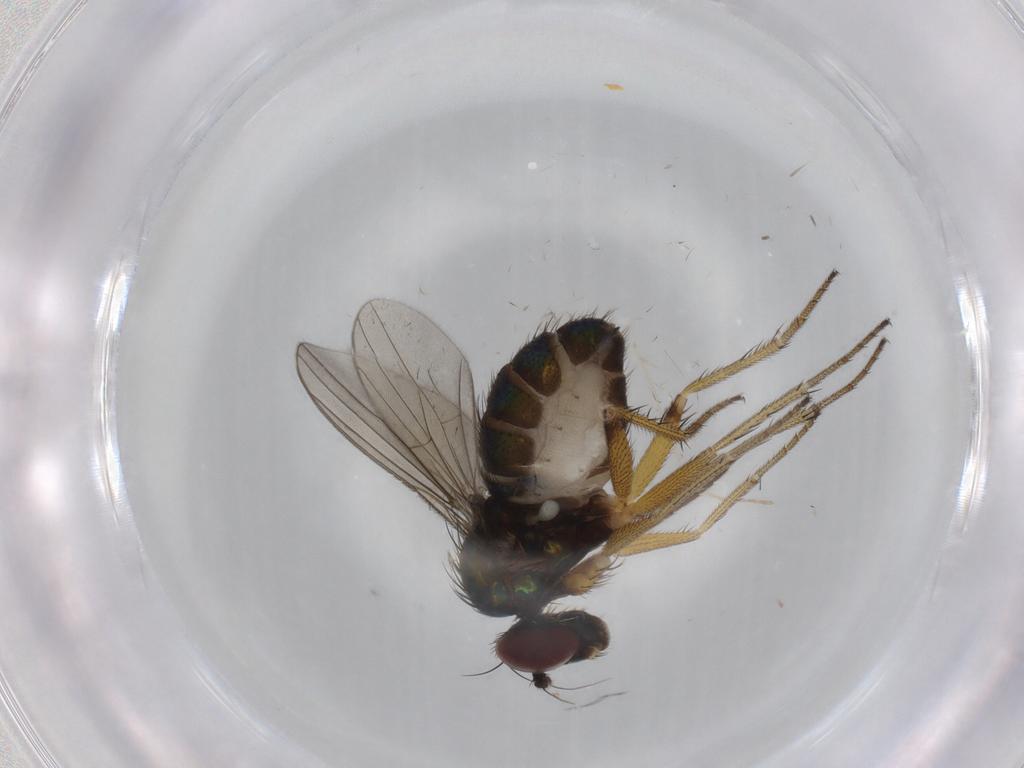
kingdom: Animalia
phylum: Arthropoda
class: Insecta
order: Diptera
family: Dolichopodidae
